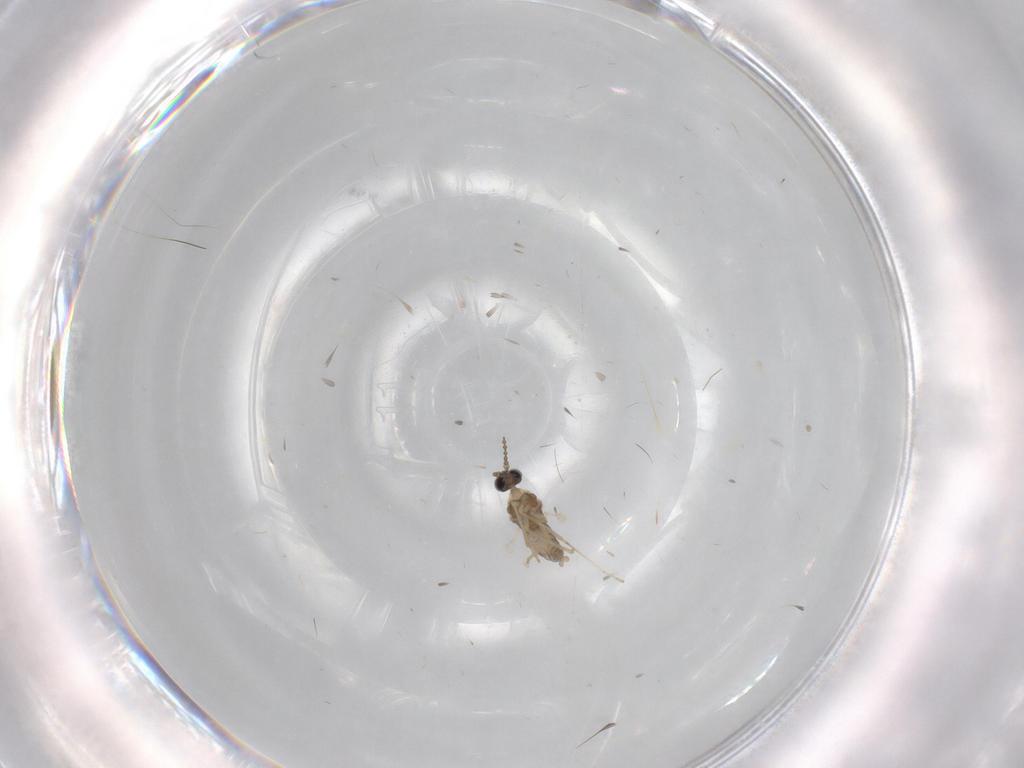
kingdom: Animalia
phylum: Arthropoda
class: Insecta
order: Diptera
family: Cecidomyiidae
